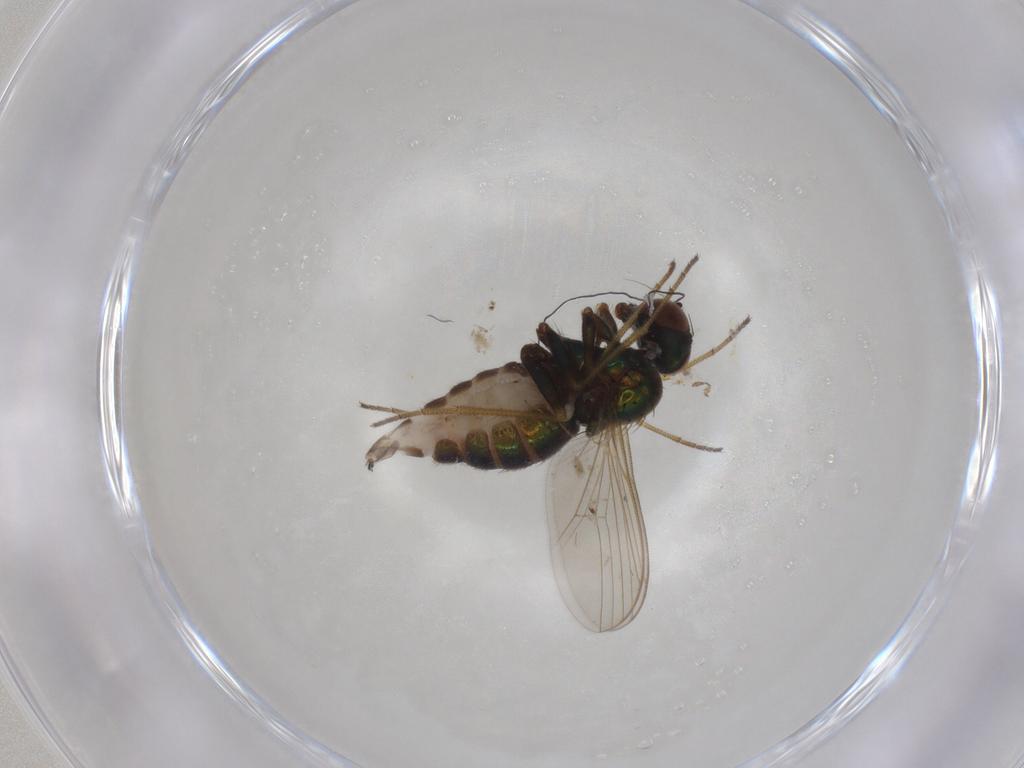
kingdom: Animalia
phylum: Arthropoda
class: Insecta
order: Diptera
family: Dolichopodidae
